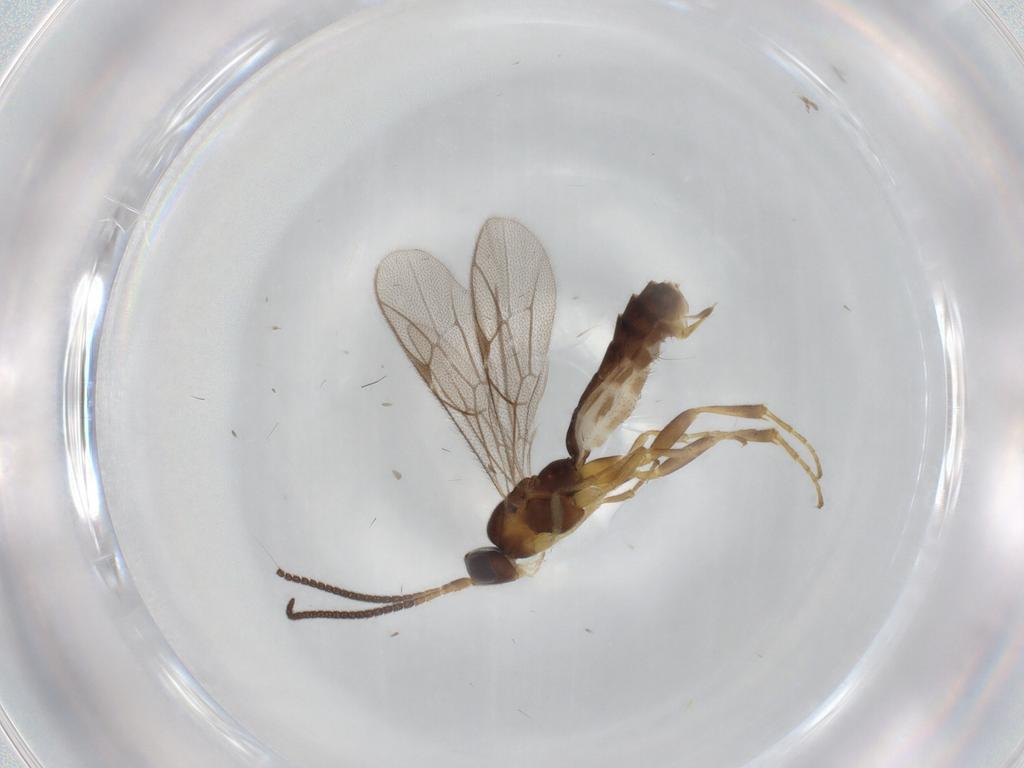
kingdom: Animalia
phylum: Arthropoda
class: Insecta
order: Hymenoptera
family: Ichneumonidae
